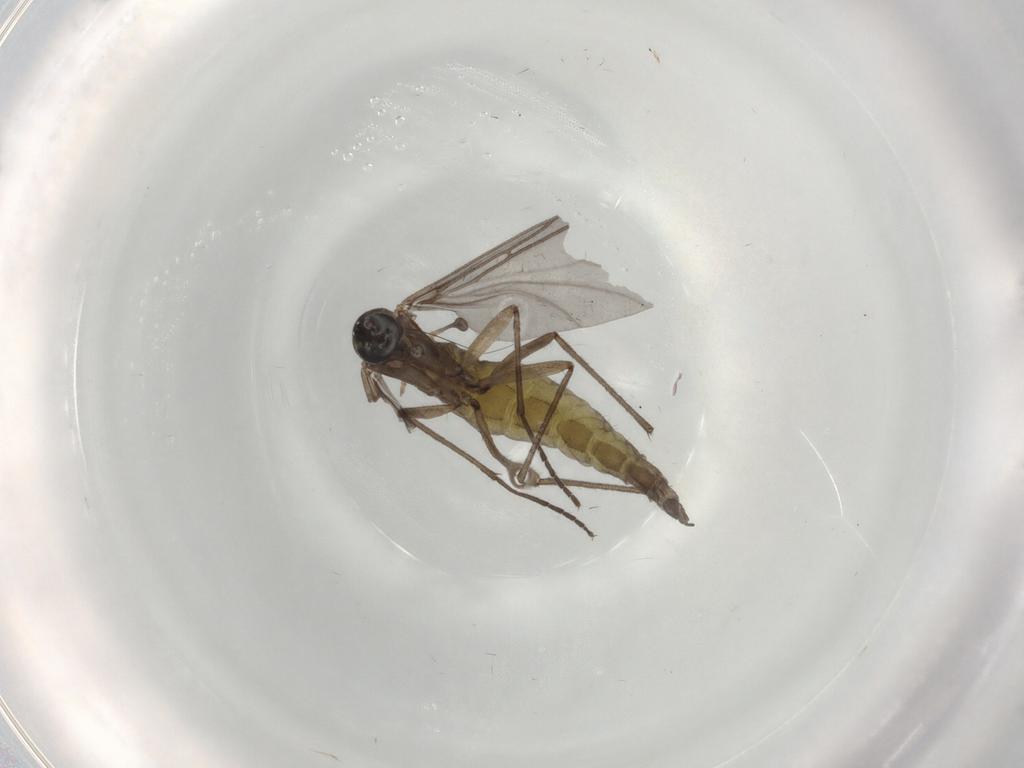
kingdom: Animalia
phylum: Arthropoda
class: Insecta
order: Diptera
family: Sciaridae
